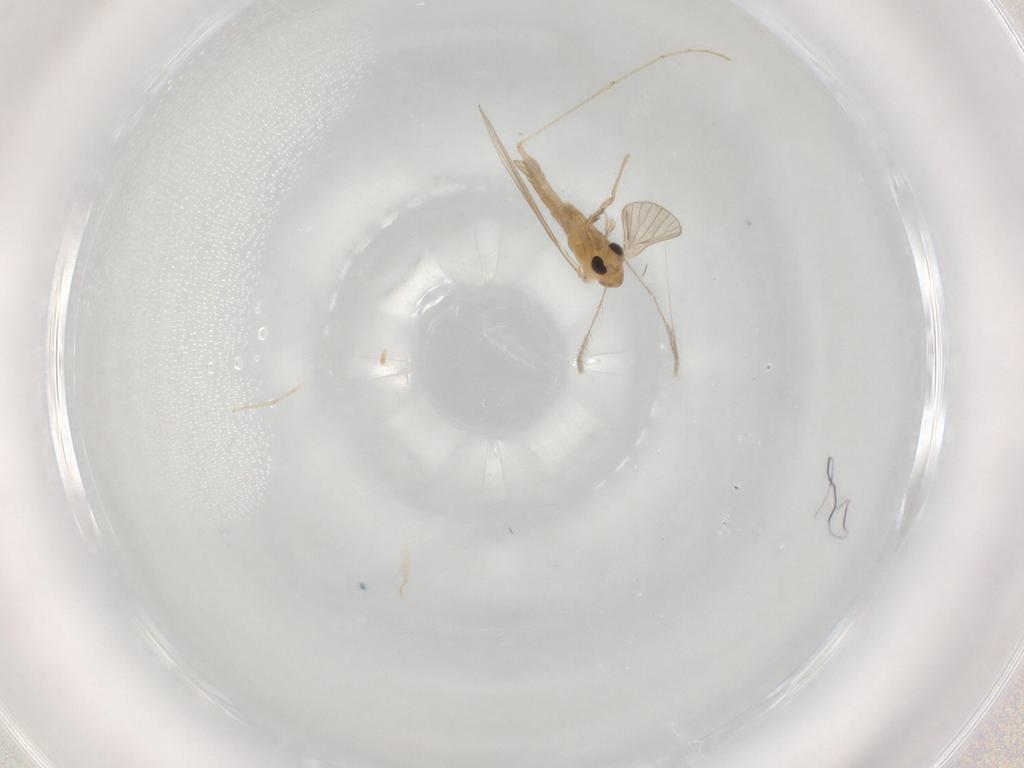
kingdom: Animalia
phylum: Arthropoda
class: Insecta
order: Diptera
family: Psychodidae
